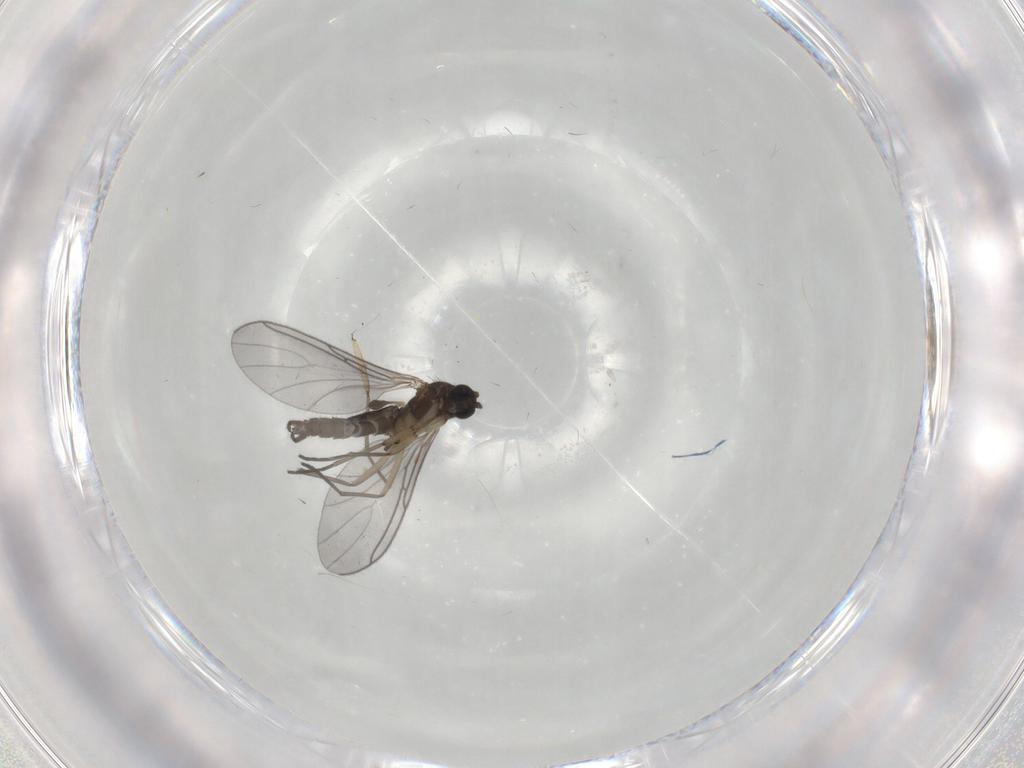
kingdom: Animalia
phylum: Arthropoda
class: Insecta
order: Diptera
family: Sciaridae
